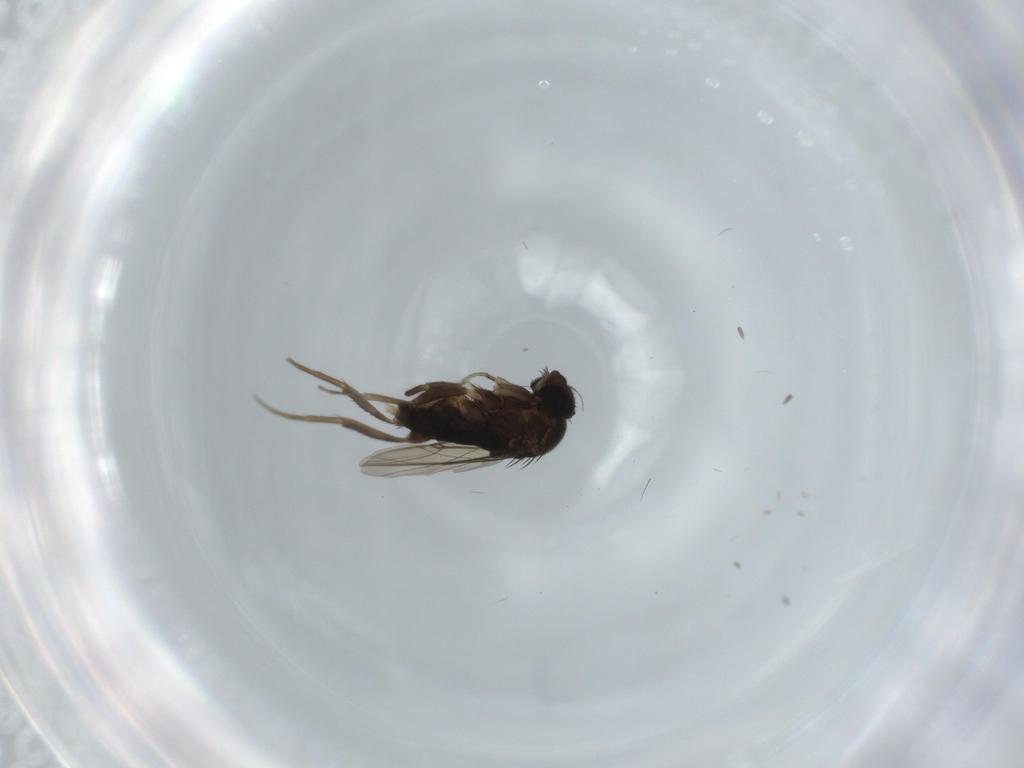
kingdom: Animalia
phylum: Arthropoda
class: Insecta
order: Diptera
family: Phoridae
